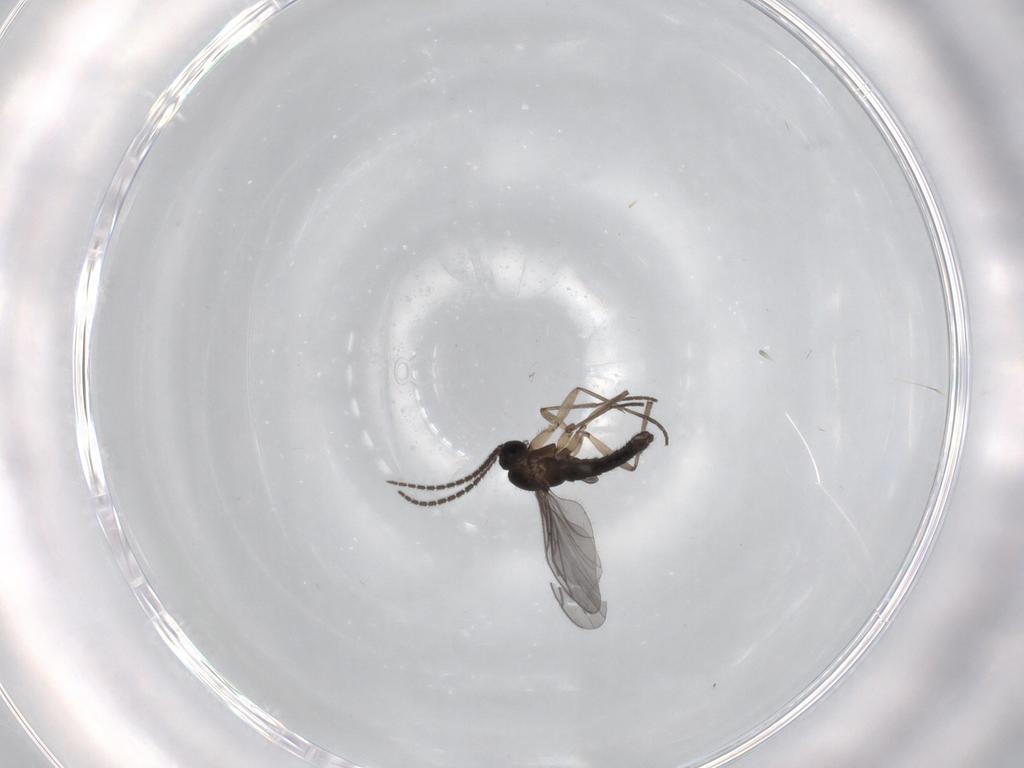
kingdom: Animalia
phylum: Arthropoda
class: Insecta
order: Diptera
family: Sciaridae
